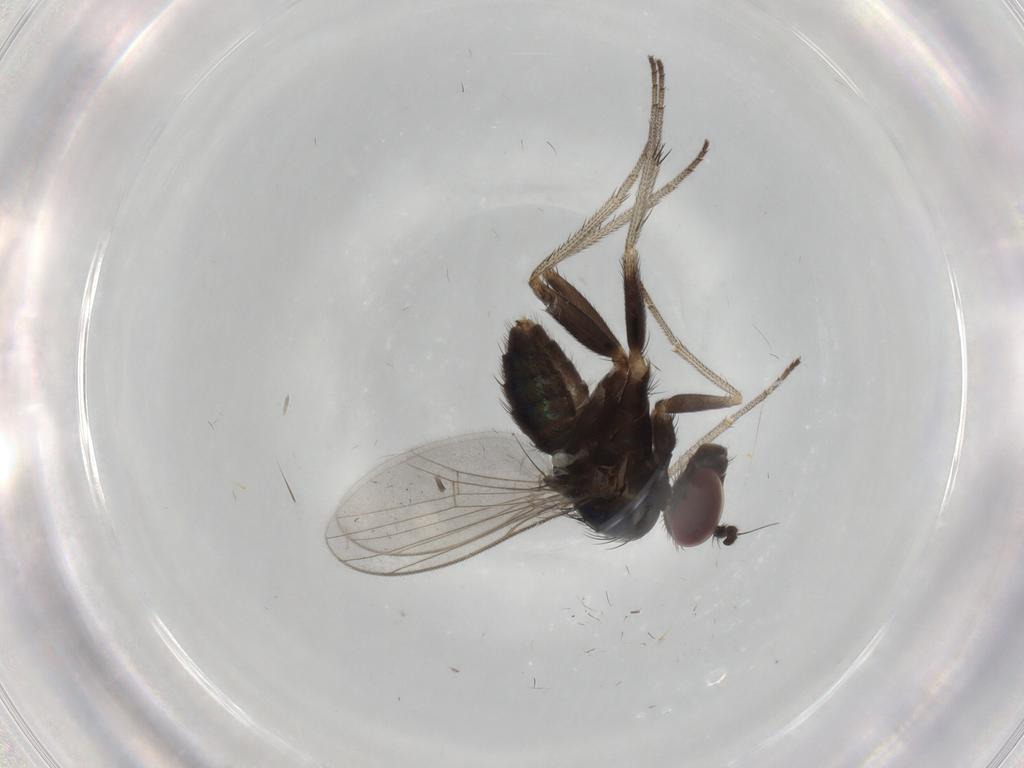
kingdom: Animalia
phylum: Arthropoda
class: Insecta
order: Diptera
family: Dolichopodidae
